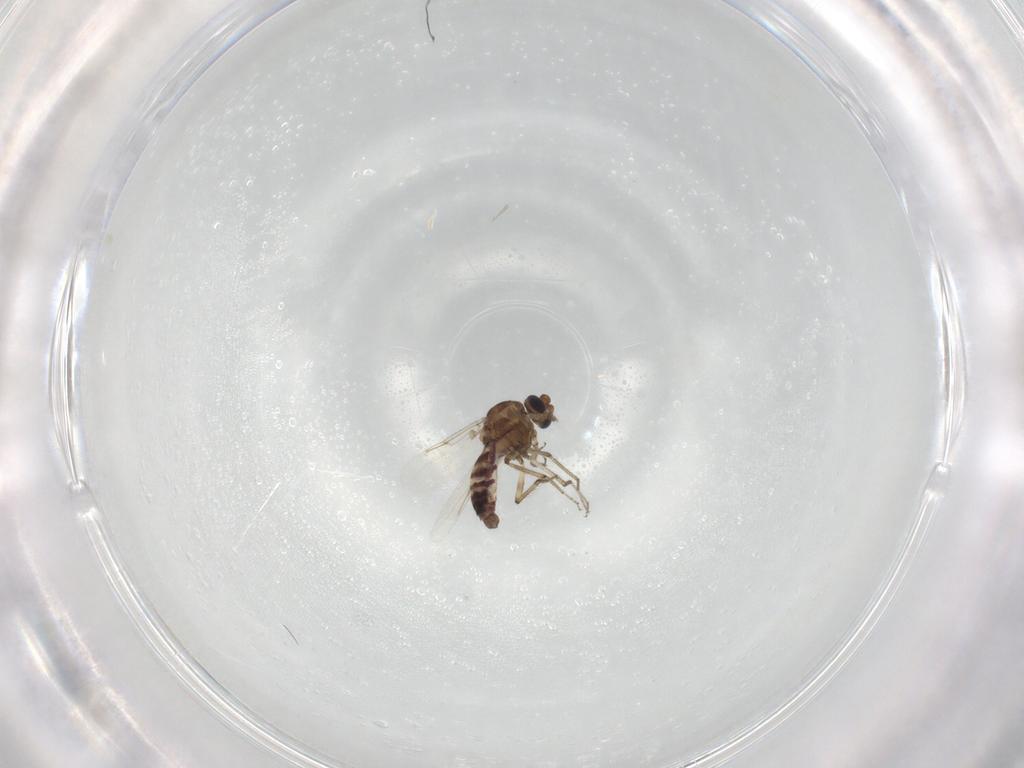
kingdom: Animalia
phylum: Arthropoda
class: Insecta
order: Diptera
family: Ceratopogonidae
